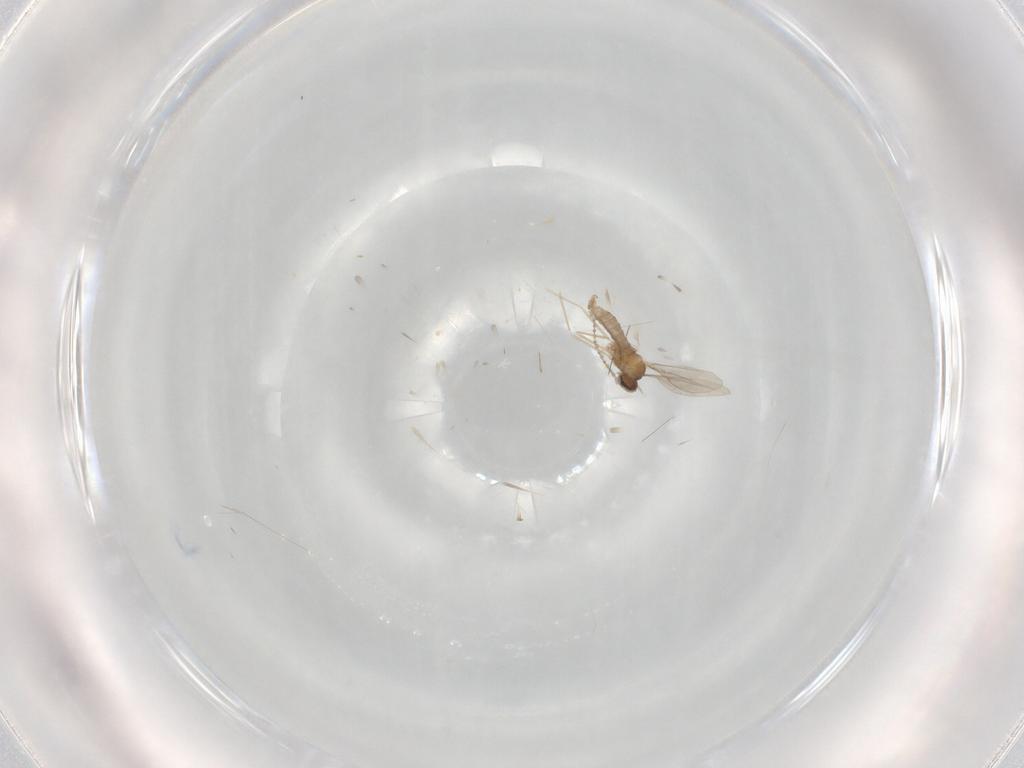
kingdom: Animalia
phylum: Arthropoda
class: Insecta
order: Diptera
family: Cecidomyiidae
